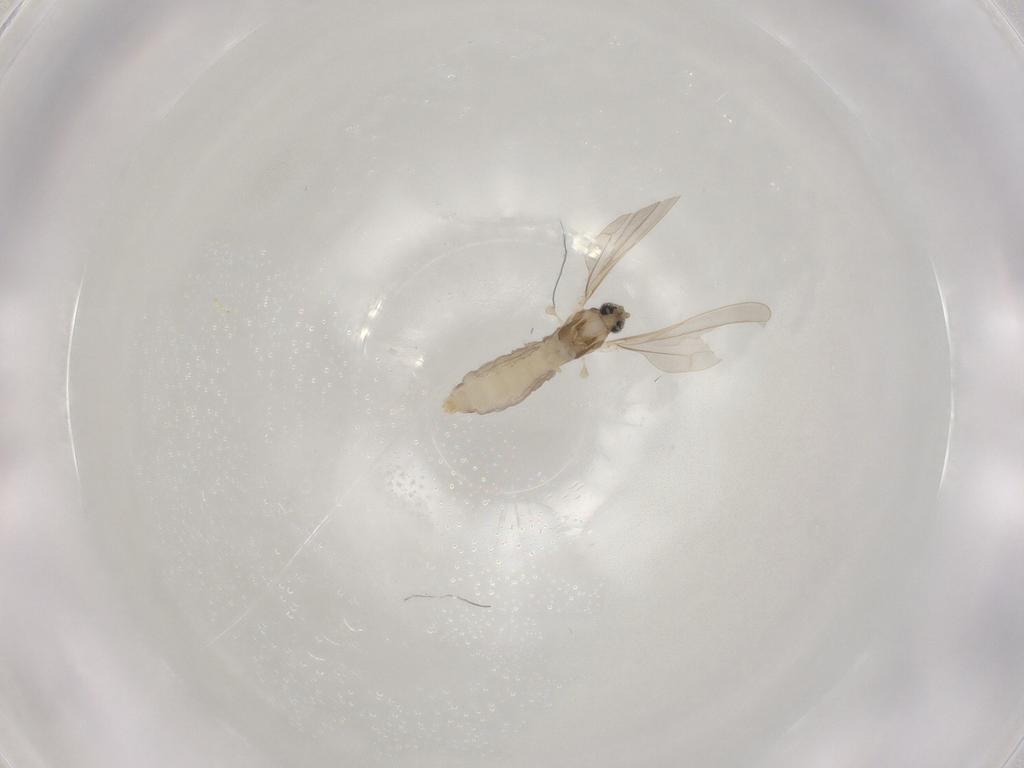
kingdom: Animalia
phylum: Arthropoda
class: Insecta
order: Diptera
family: Cecidomyiidae
